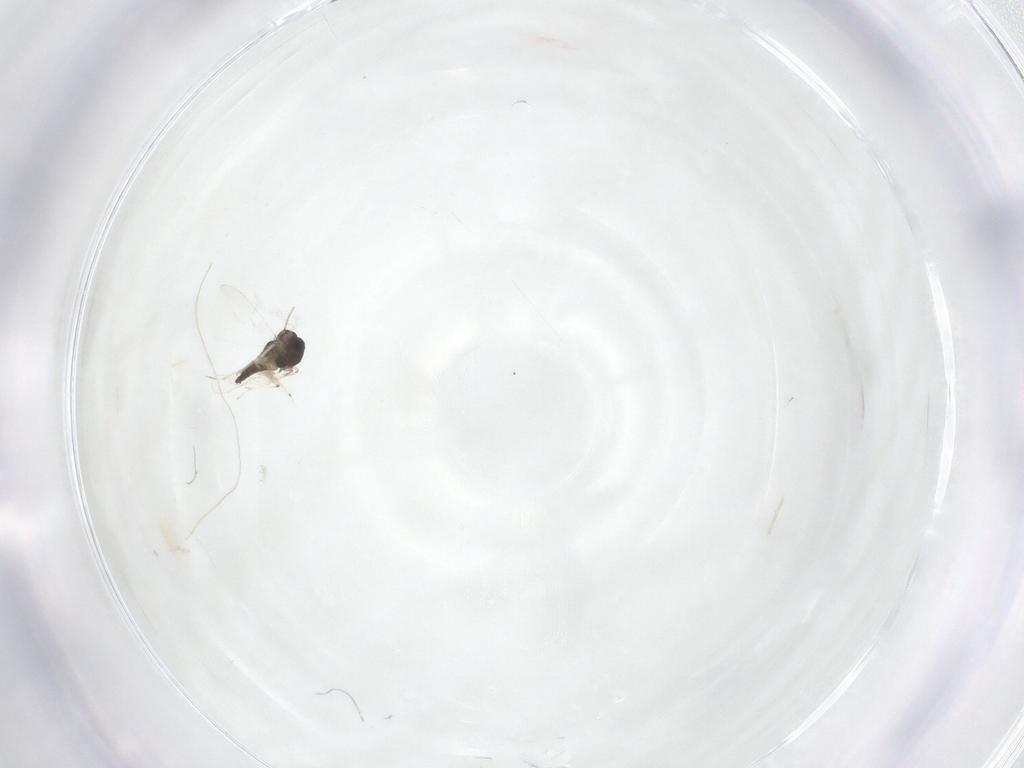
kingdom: Animalia
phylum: Arthropoda
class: Insecta
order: Diptera
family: Chironomidae
